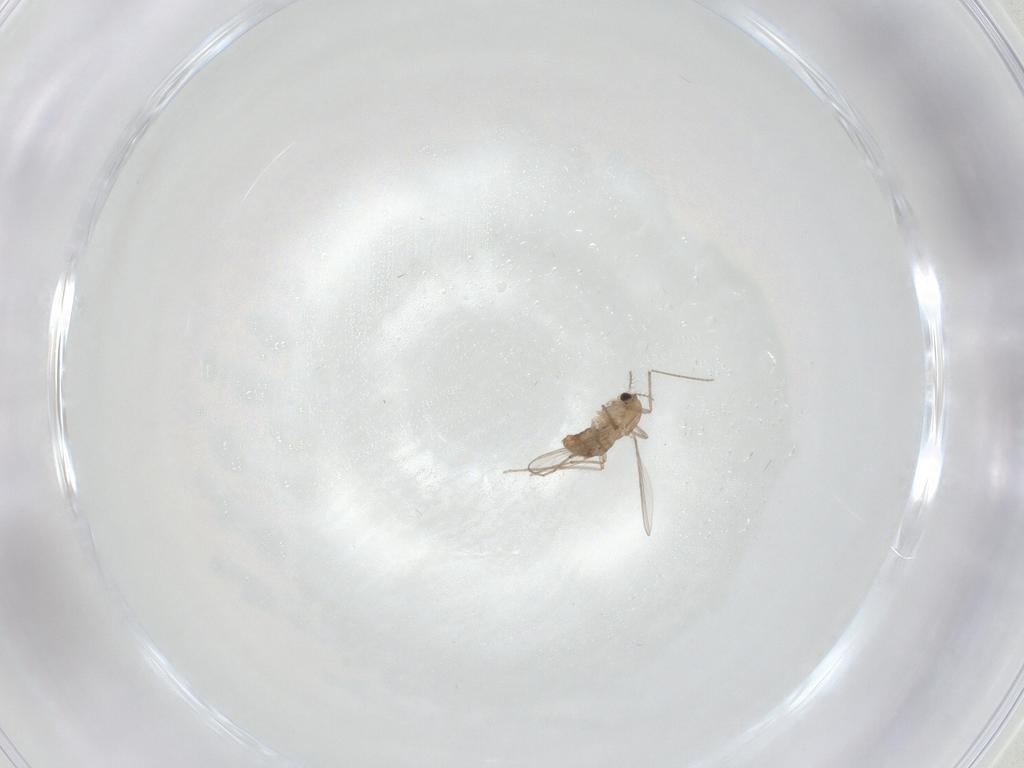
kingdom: Animalia
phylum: Arthropoda
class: Insecta
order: Diptera
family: Chironomidae
